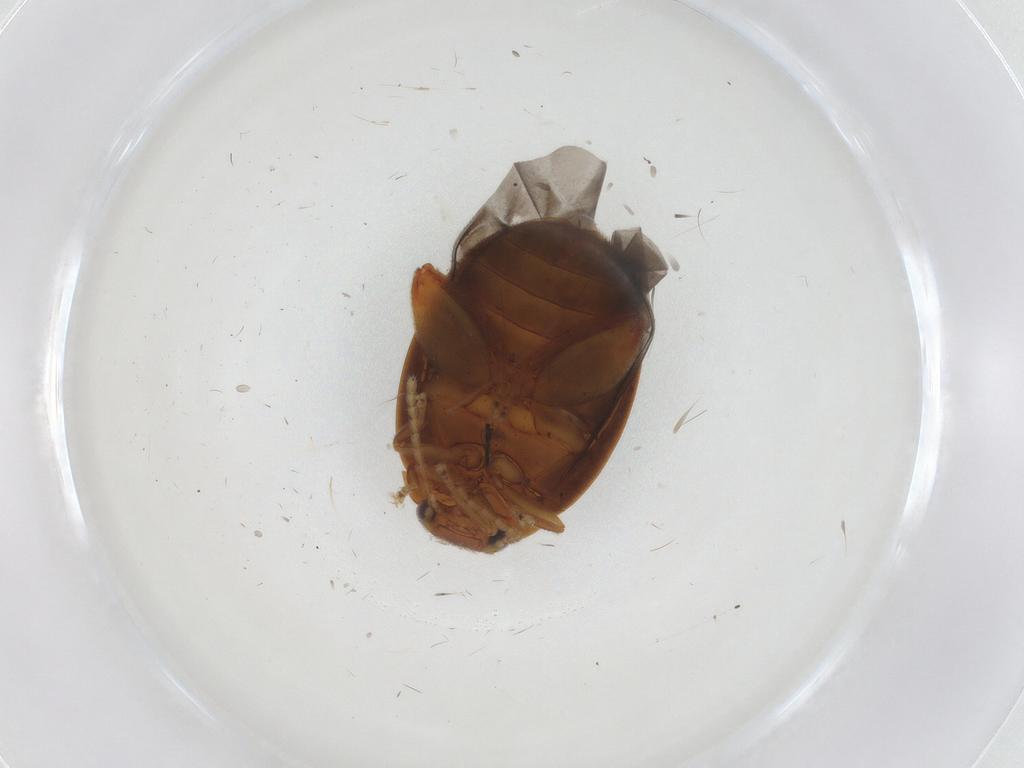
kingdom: Animalia
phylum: Arthropoda
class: Insecta
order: Coleoptera
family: Scirtidae
